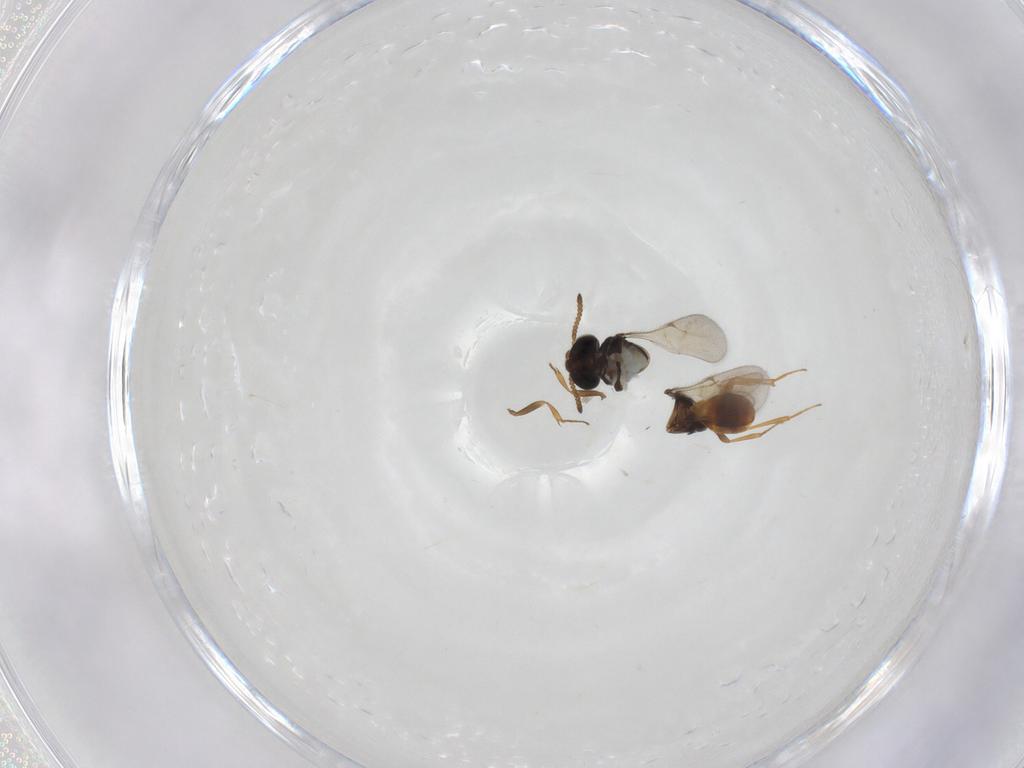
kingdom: Animalia
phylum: Arthropoda
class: Insecta
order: Hymenoptera
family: Scelionidae
